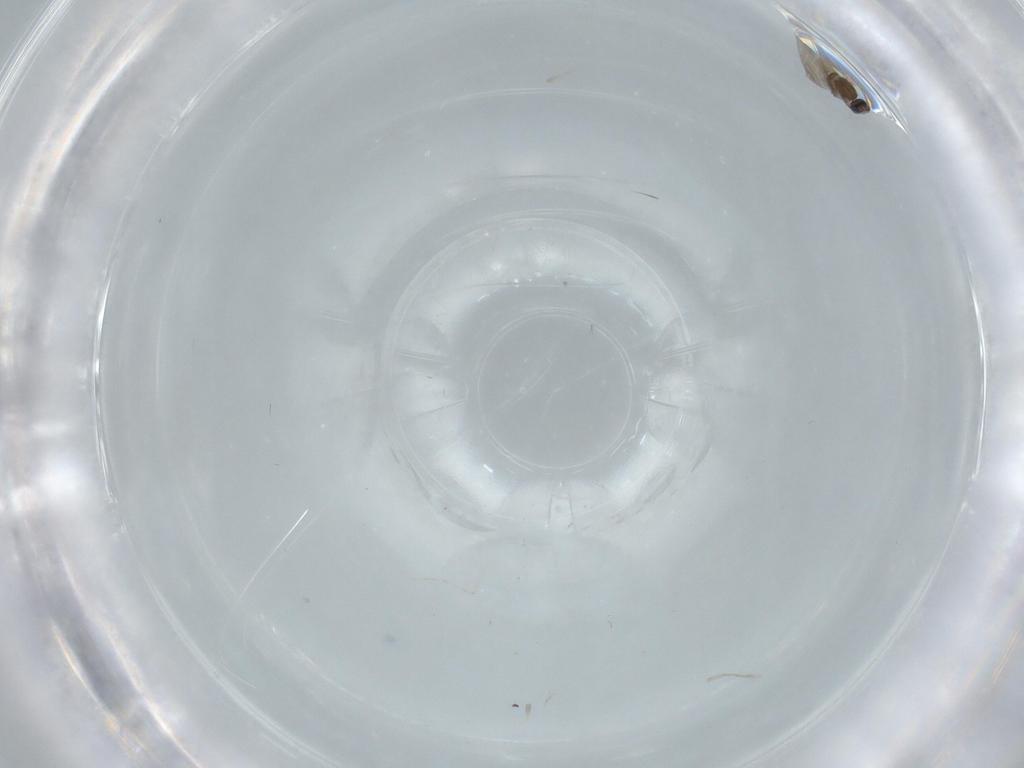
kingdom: Animalia
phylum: Arthropoda
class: Insecta
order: Diptera
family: Cecidomyiidae
